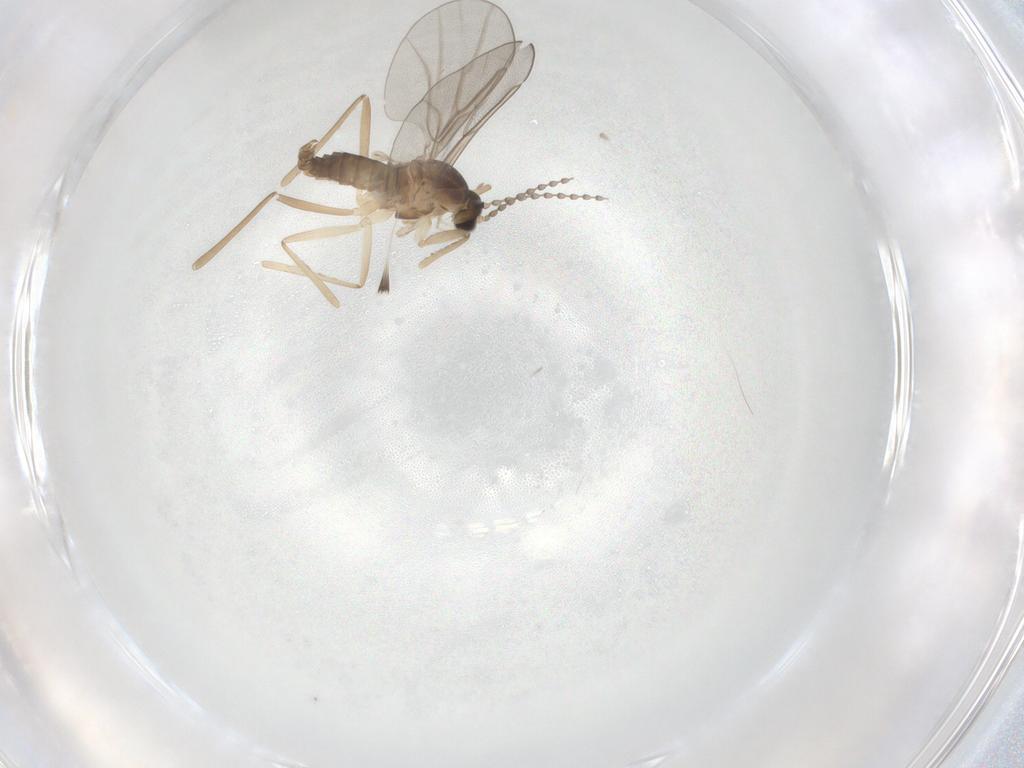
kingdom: Animalia
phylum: Arthropoda
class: Insecta
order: Diptera
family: Cecidomyiidae
